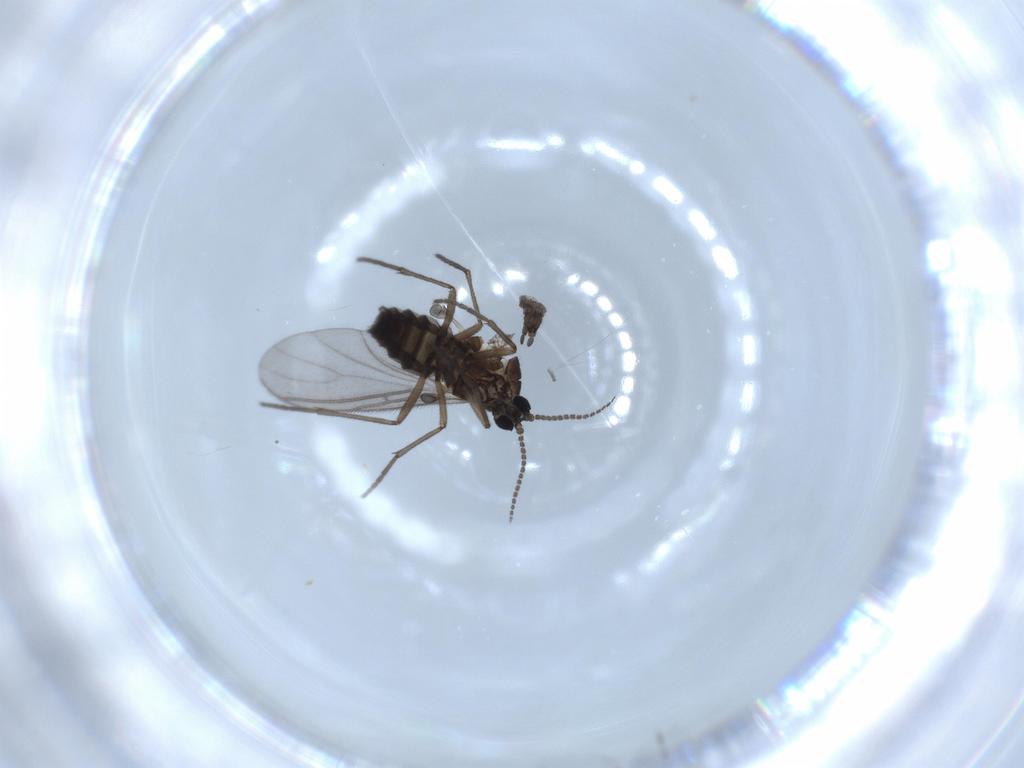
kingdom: Animalia
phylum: Arthropoda
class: Insecta
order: Diptera
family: Sciaridae
